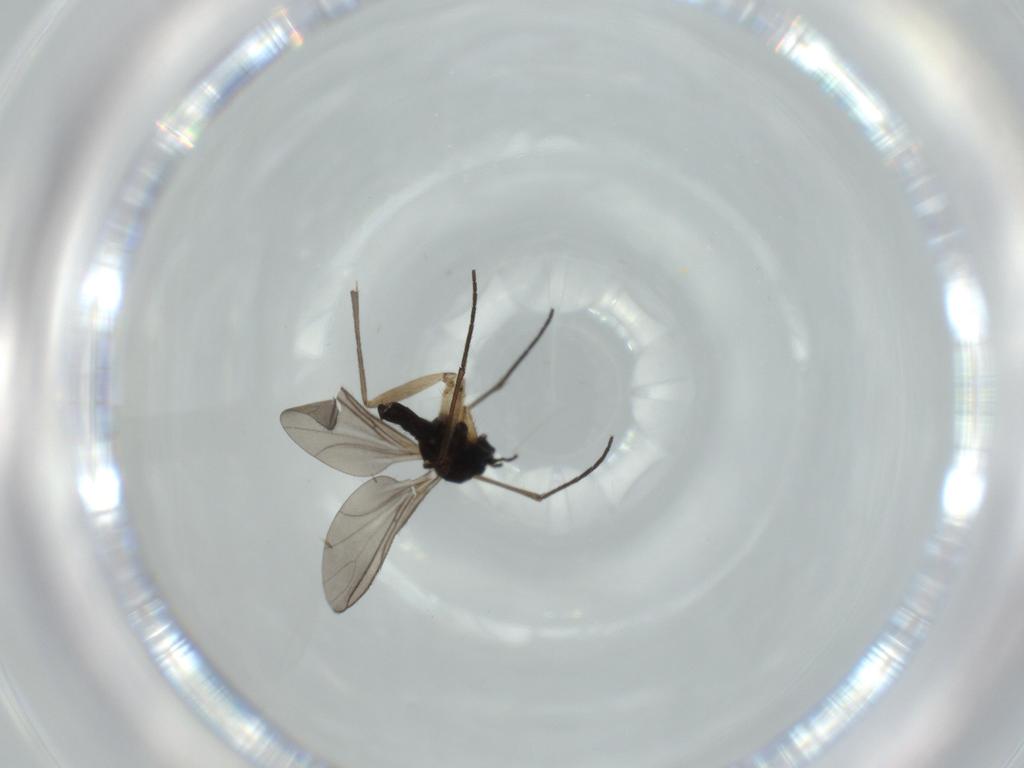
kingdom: Animalia
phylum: Arthropoda
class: Insecta
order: Diptera
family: Sciaridae
